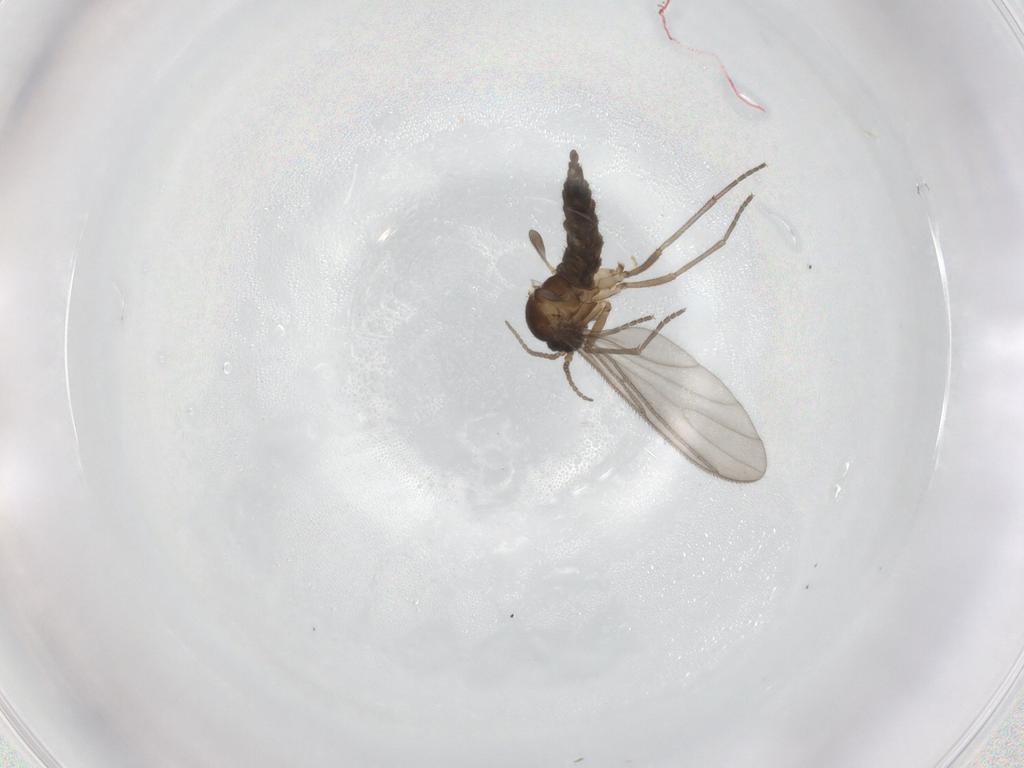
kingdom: Animalia
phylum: Arthropoda
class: Insecta
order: Diptera
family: Sciaridae
